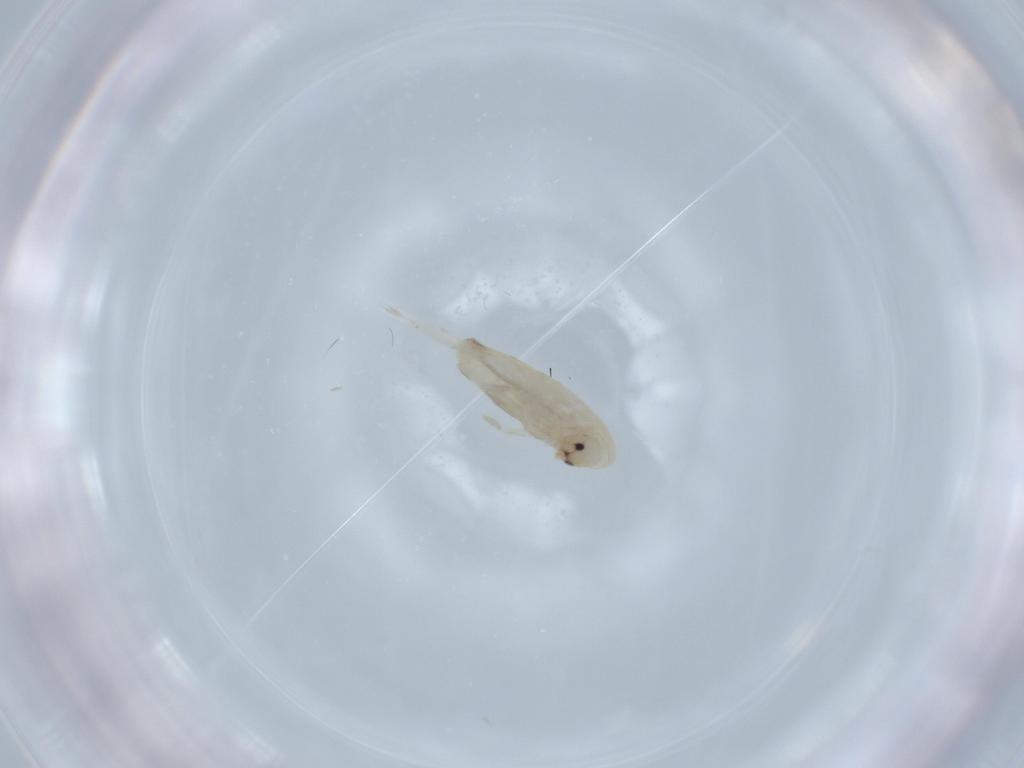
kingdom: Animalia
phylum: Arthropoda
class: Collembola
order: Entomobryomorpha
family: Entomobryidae
